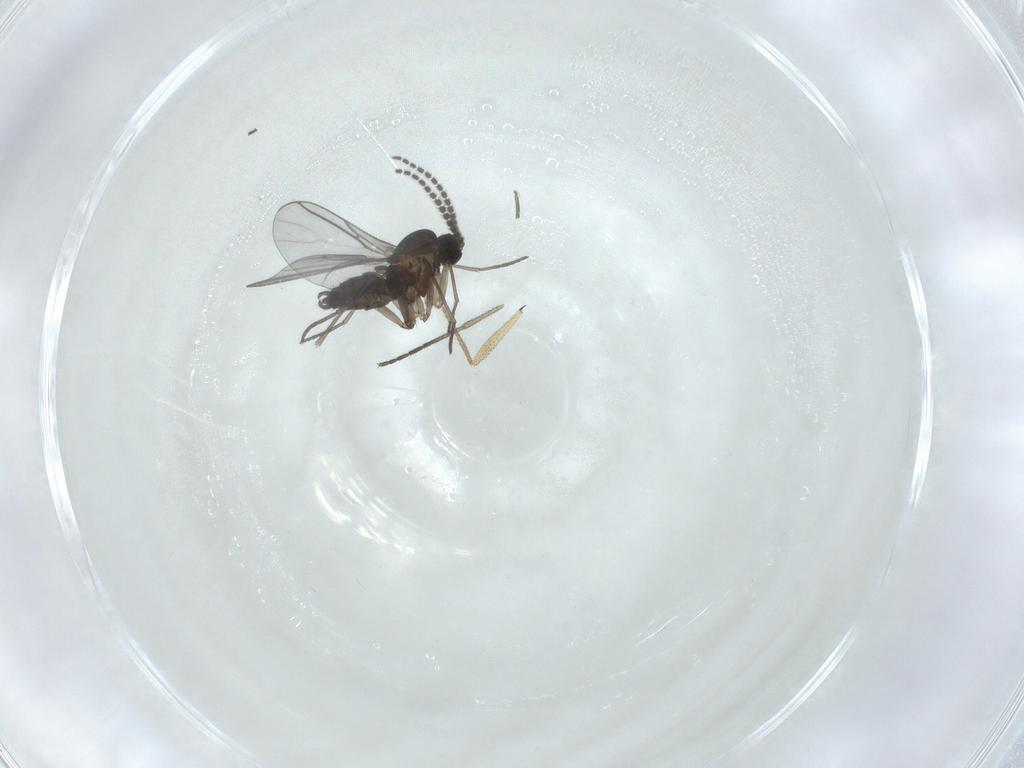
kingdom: Animalia
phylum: Arthropoda
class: Insecta
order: Diptera
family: Sciaridae
